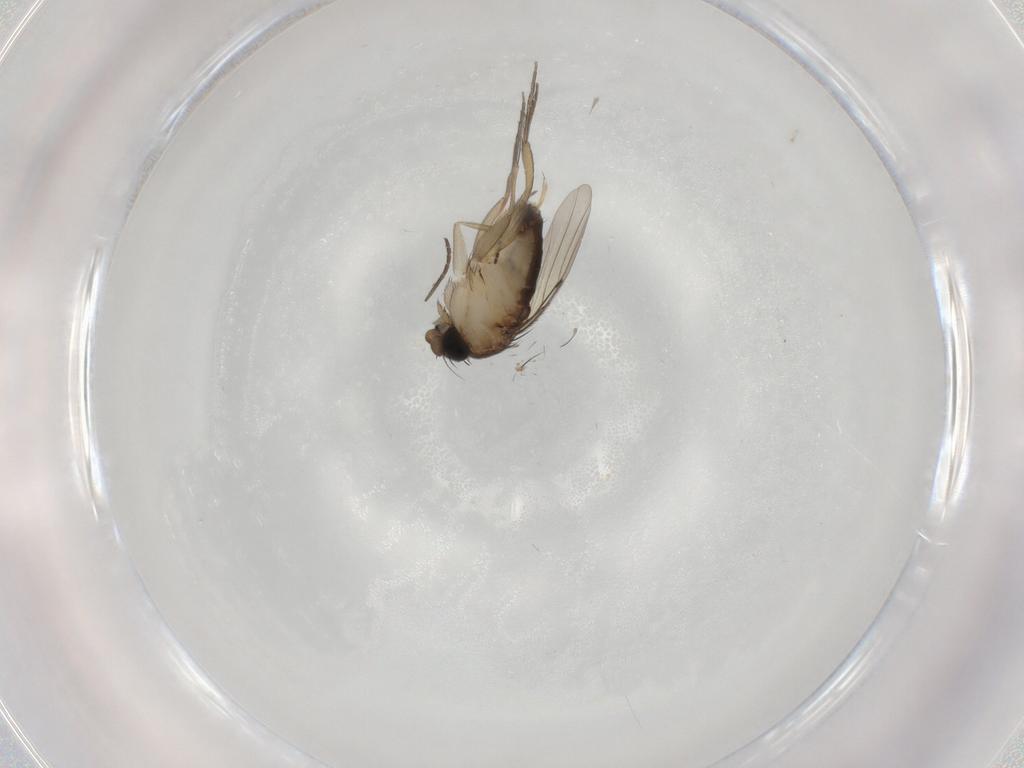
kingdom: Animalia
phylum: Arthropoda
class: Insecta
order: Diptera
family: Phoridae
